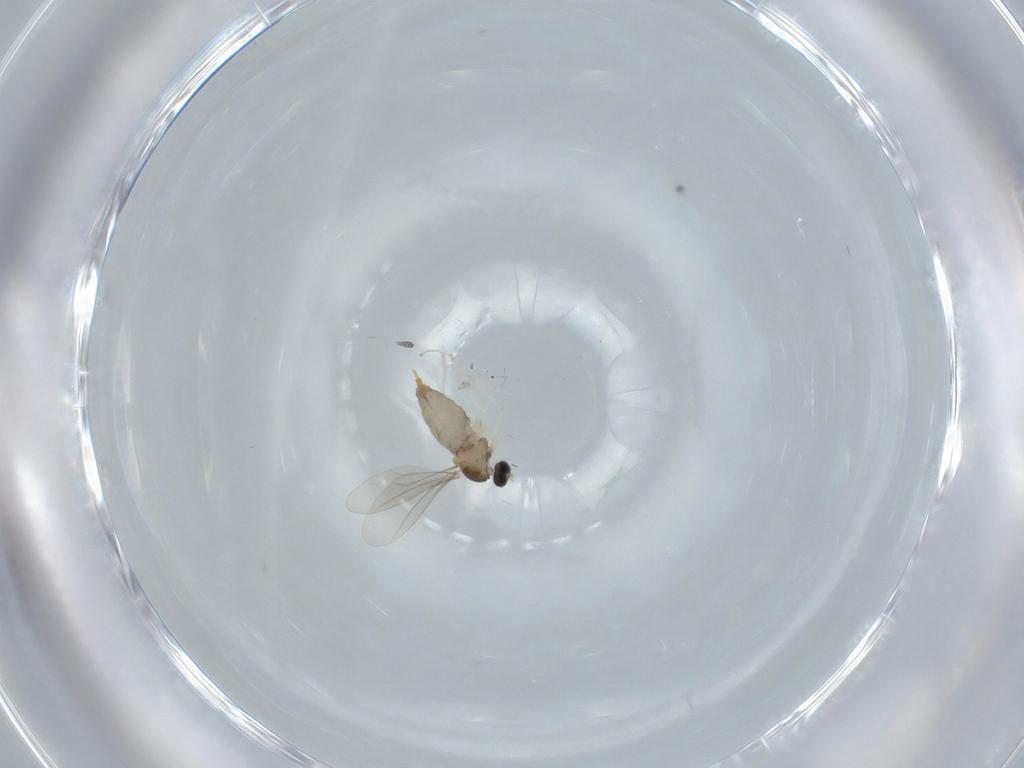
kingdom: Animalia
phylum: Arthropoda
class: Insecta
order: Diptera
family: Cecidomyiidae
